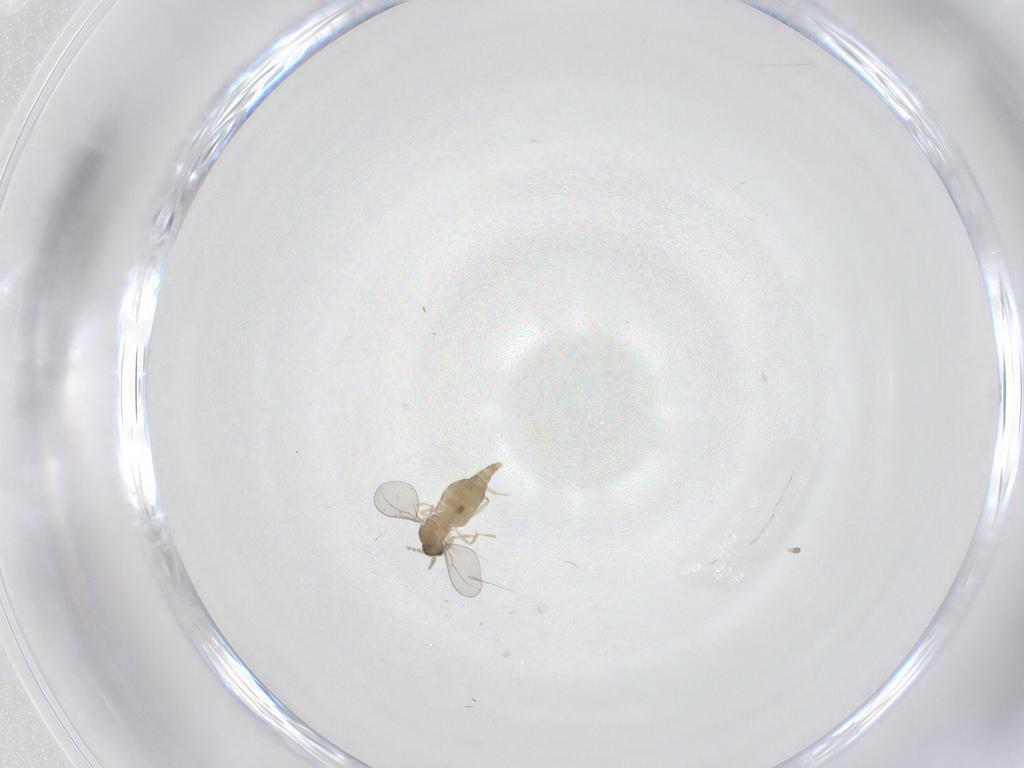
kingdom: Animalia
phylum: Arthropoda
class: Insecta
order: Diptera
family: Cecidomyiidae
